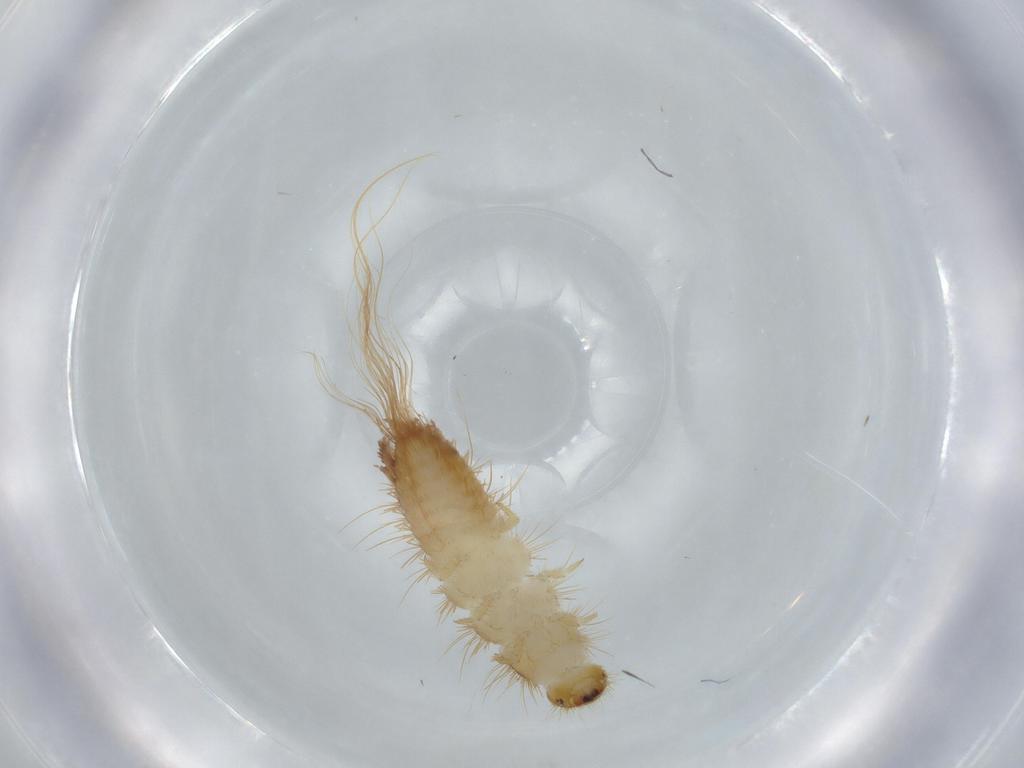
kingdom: Animalia
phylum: Arthropoda
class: Insecta
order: Coleoptera
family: Dermestidae
